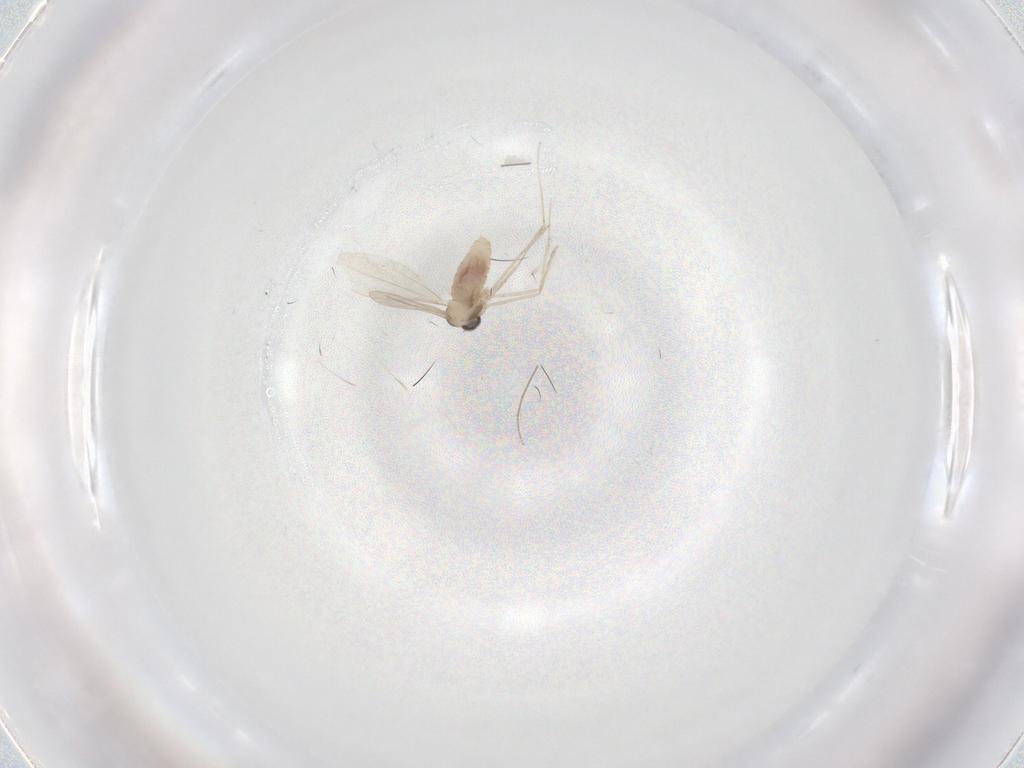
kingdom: Animalia
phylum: Arthropoda
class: Insecta
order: Diptera
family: Cecidomyiidae
